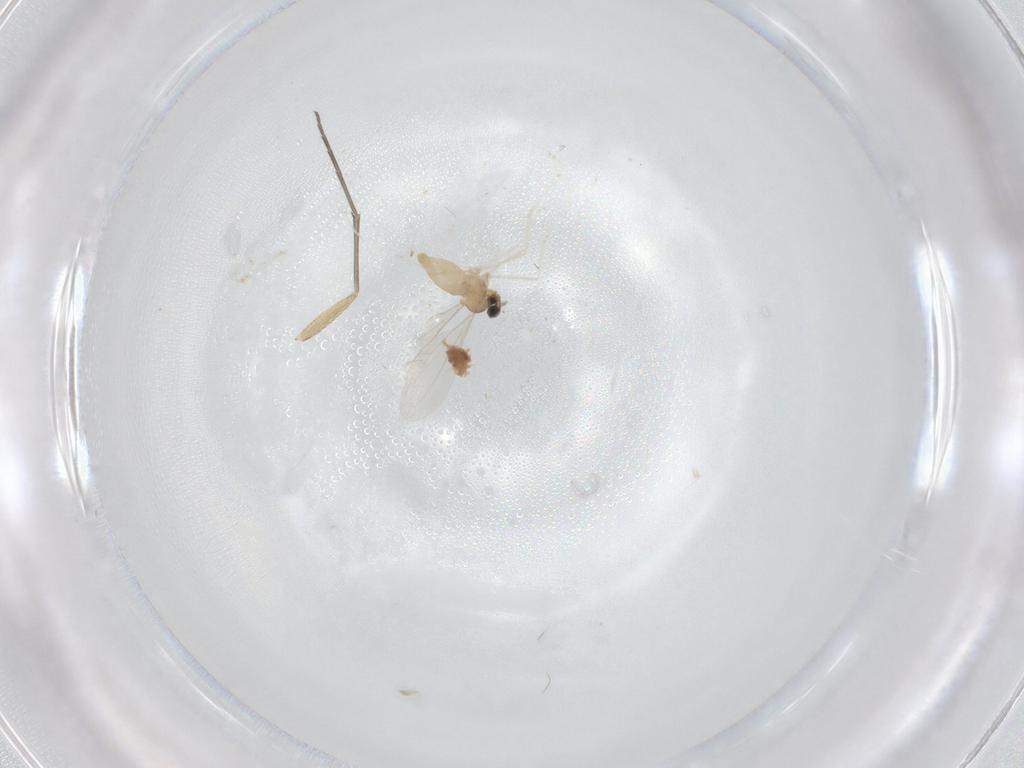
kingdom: Animalia
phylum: Arthropoda
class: Insecta
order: Diptera
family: Cecidomyiidae
